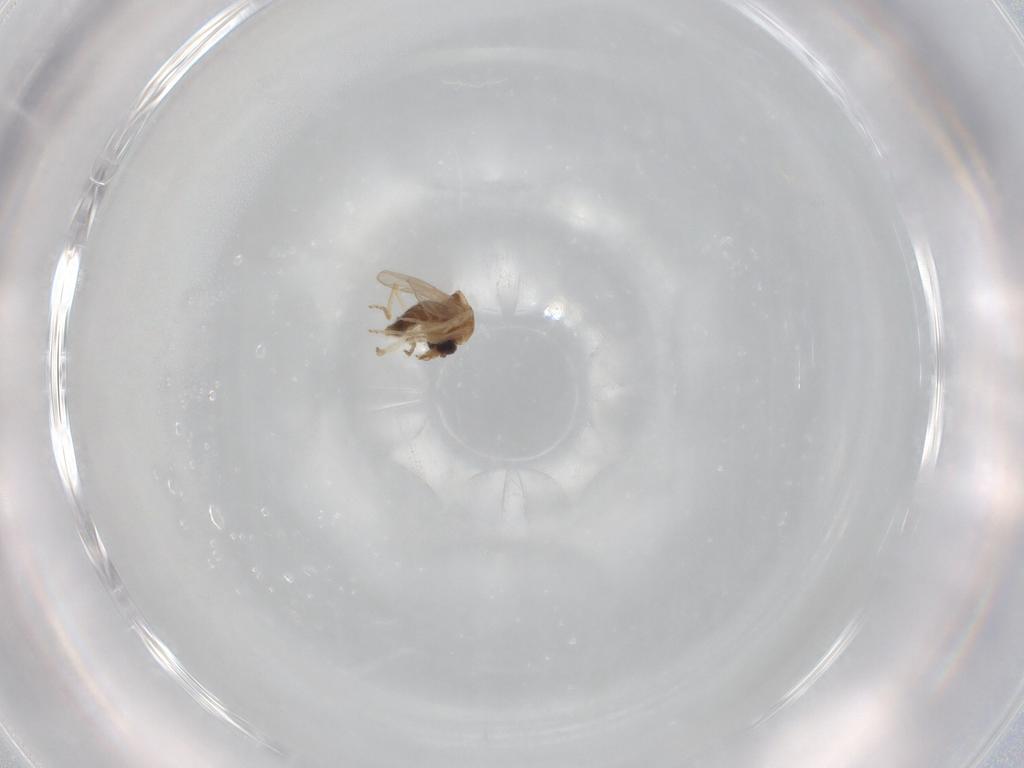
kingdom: Animalia
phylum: Arthropoda
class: Insecta
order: Diptera
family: Ceratopogonidae
